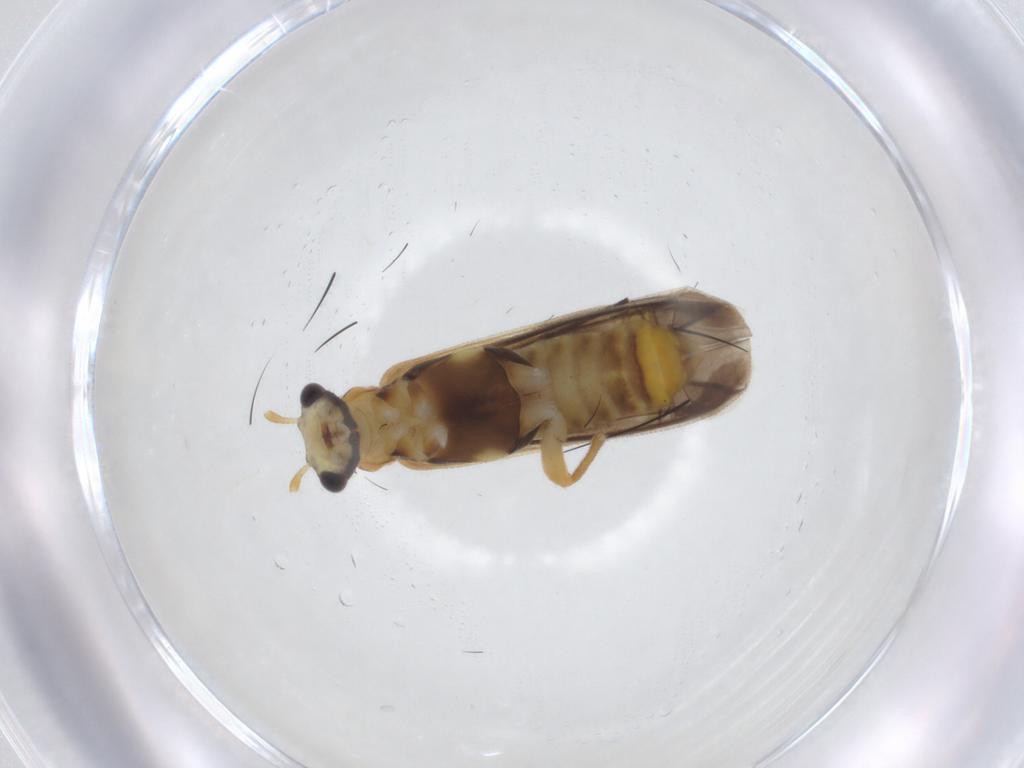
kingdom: Animalia
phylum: Arthropoda
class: Insecta
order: Coleoptera
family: Cantharidae
